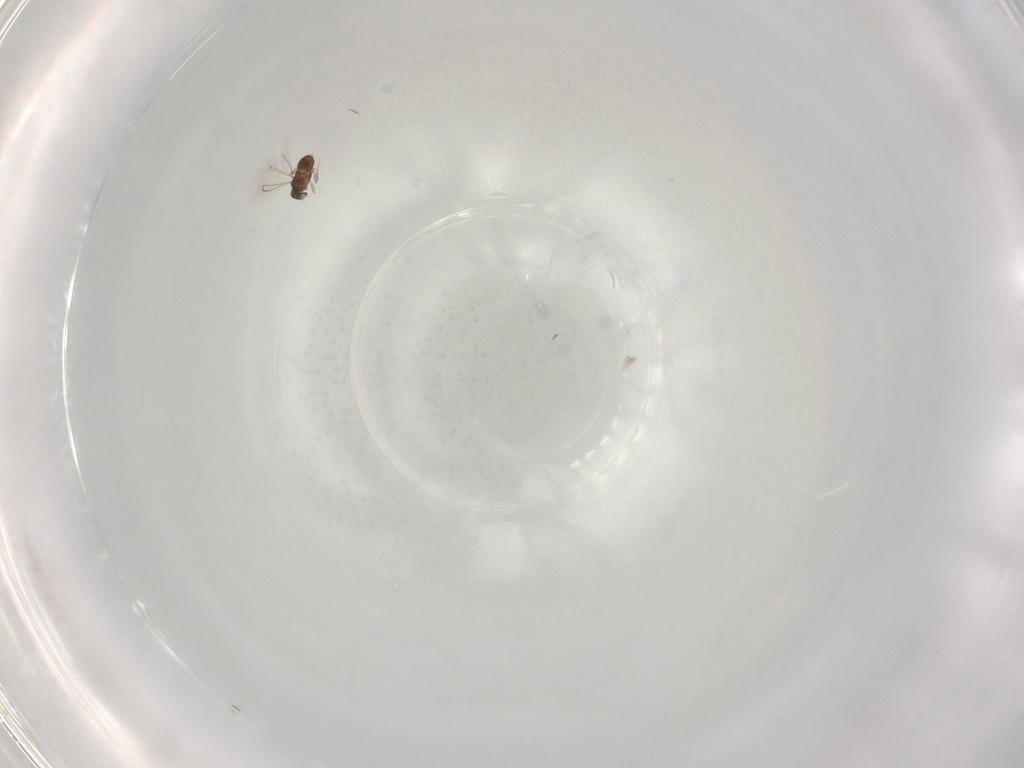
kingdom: Animalia
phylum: Arthropoda
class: Insecta
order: Hymenoptera
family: Mymaridae
